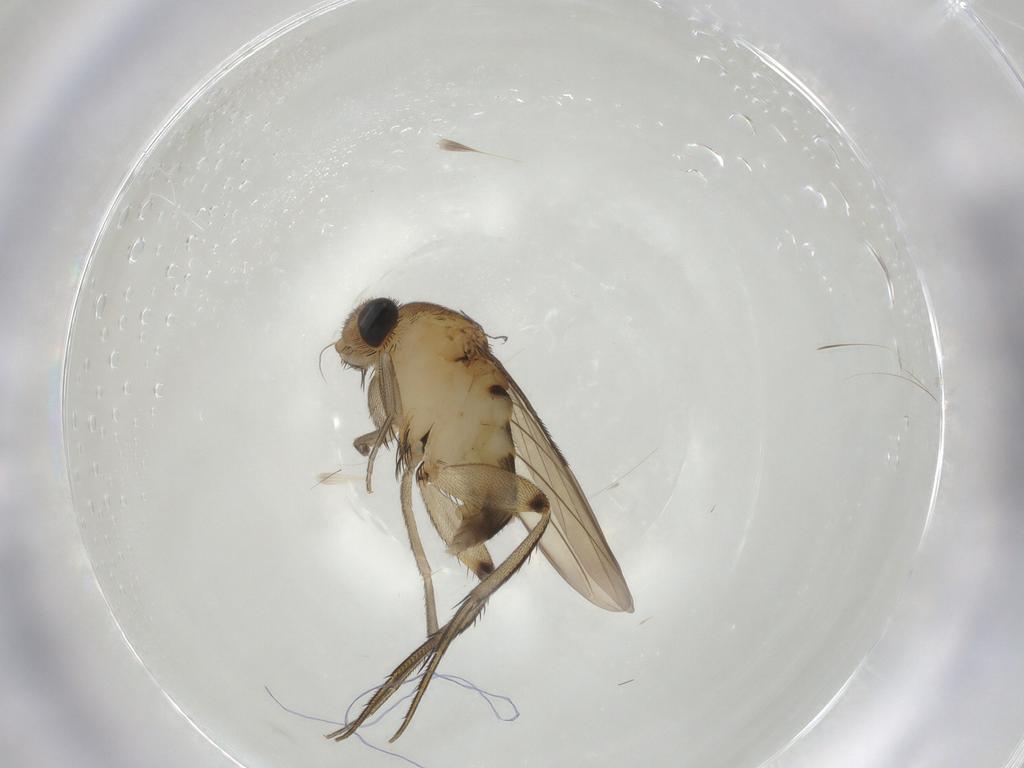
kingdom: Animalia
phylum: Arthropoda
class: Insecta
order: Diptera
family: Phoridae
